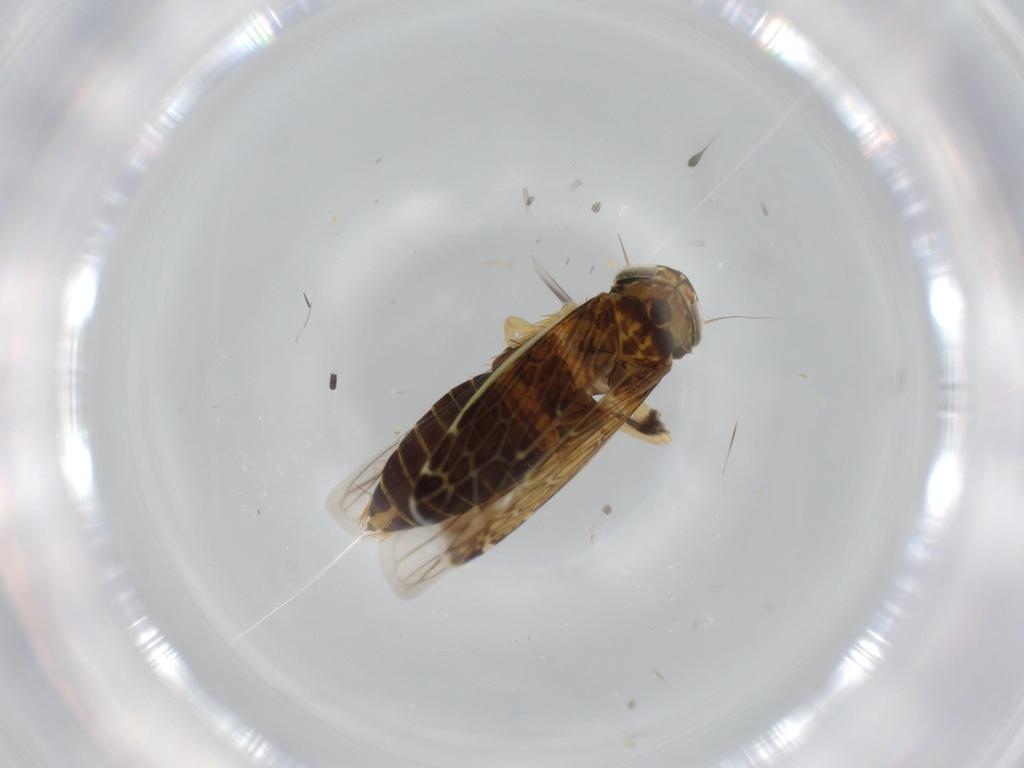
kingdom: Animalia
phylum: Arthropoda
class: Insecta
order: Hemiptera
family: Cicadellidae
